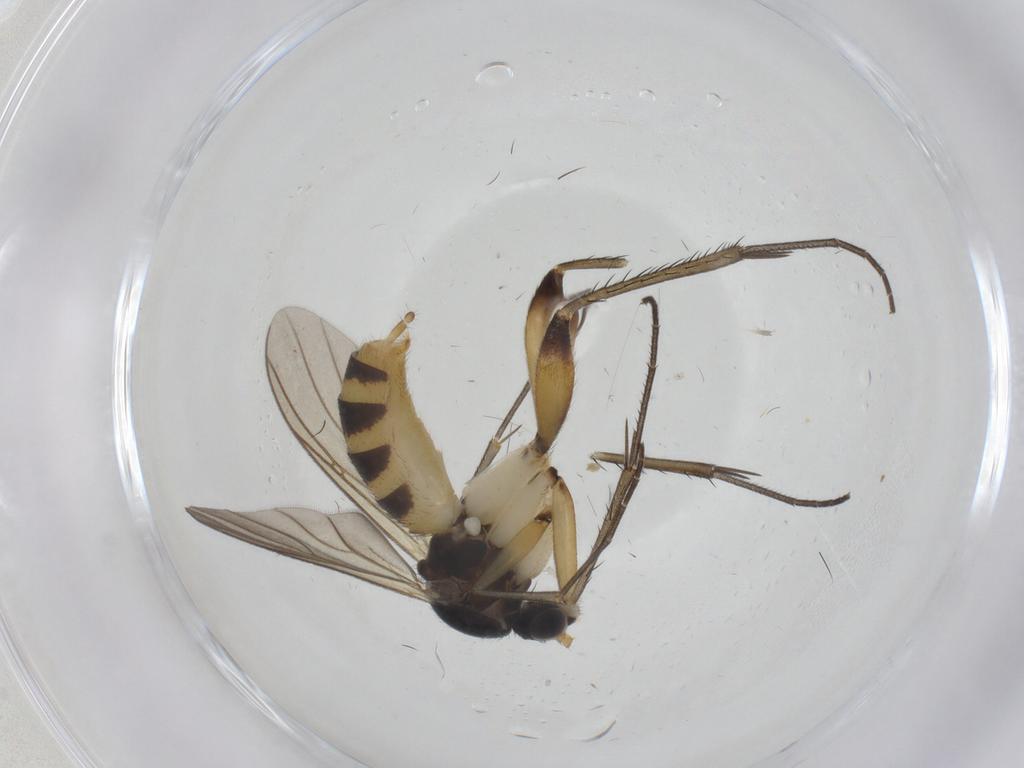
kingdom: Animalia
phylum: Arthropoda
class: Insecta
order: Diptera
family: Mycetophilidae
